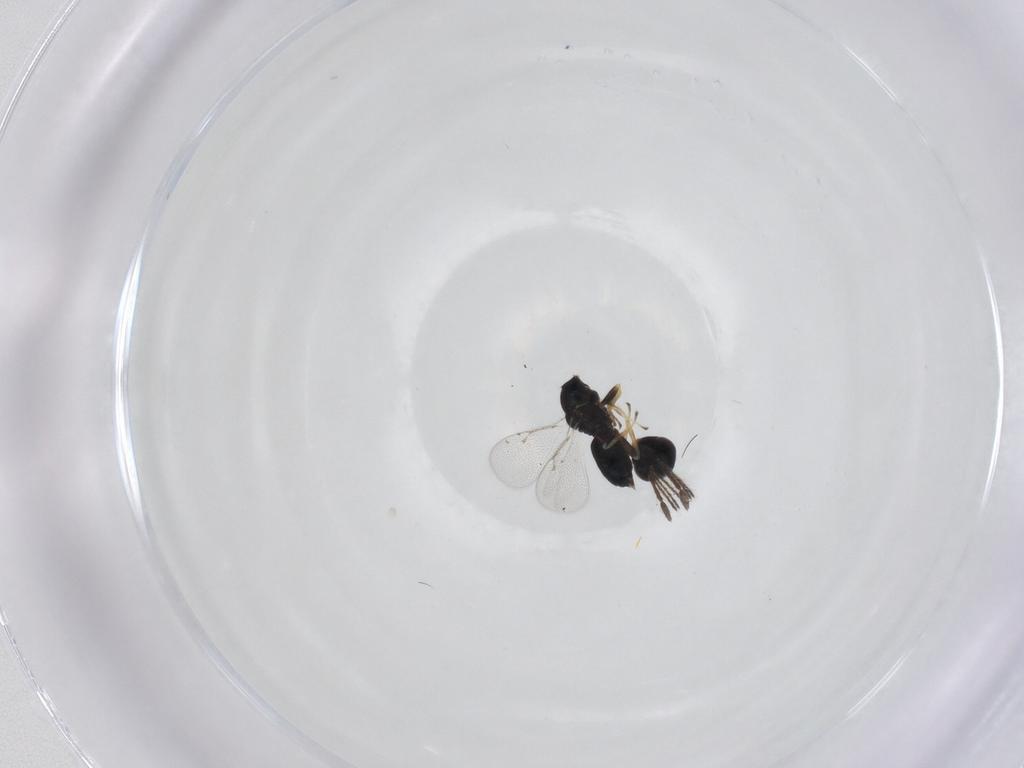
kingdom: Animalia
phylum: Arthropoda
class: Insecta
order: Hymenoptera
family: Eulophidae
